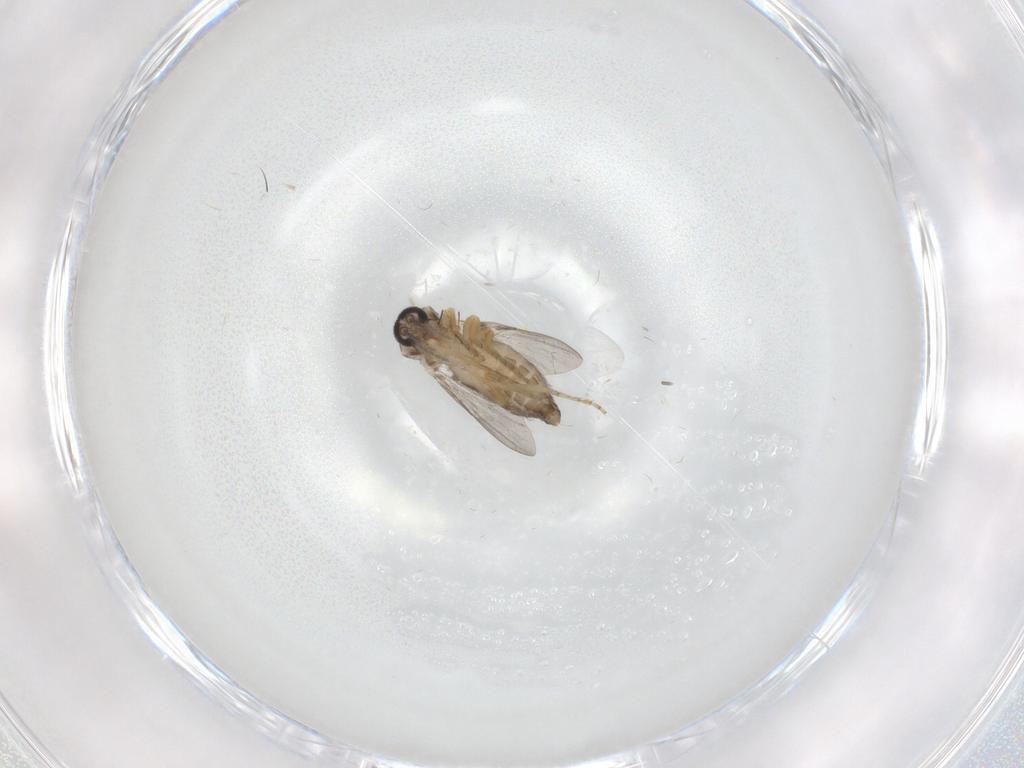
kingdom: Animalia
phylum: Arthropoda
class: Insecta
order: Diptera
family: Ceratopogonidae
